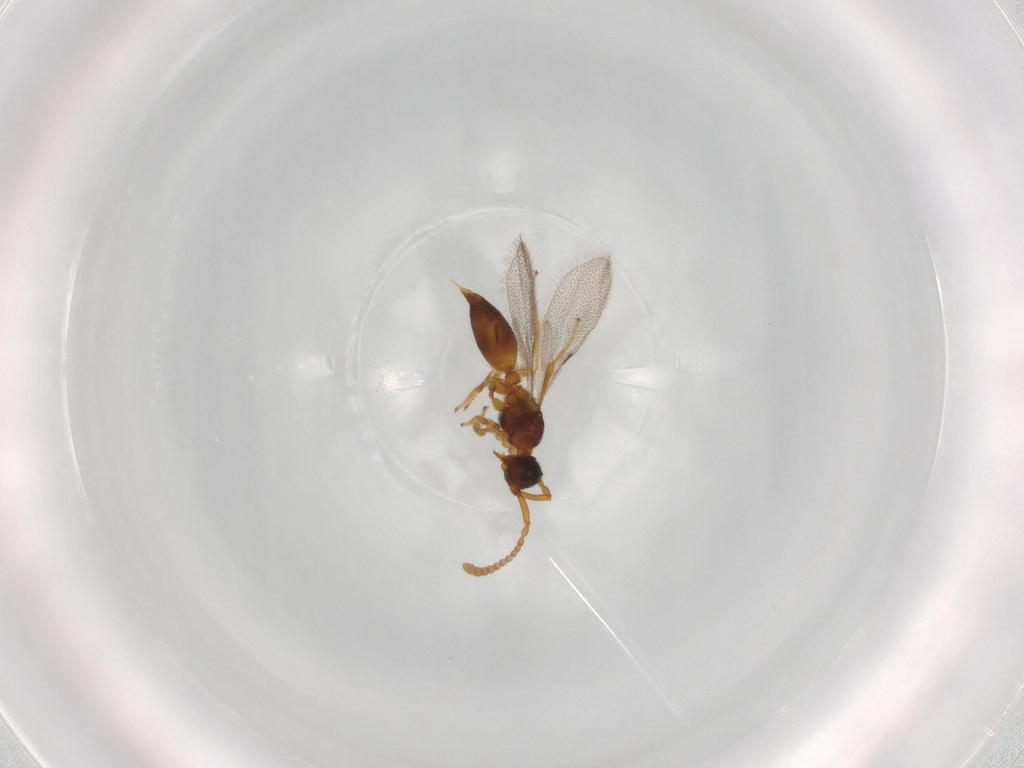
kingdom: Animalia
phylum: Arthropoda
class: Insecta
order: Hymenoptera
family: Diapriidae
